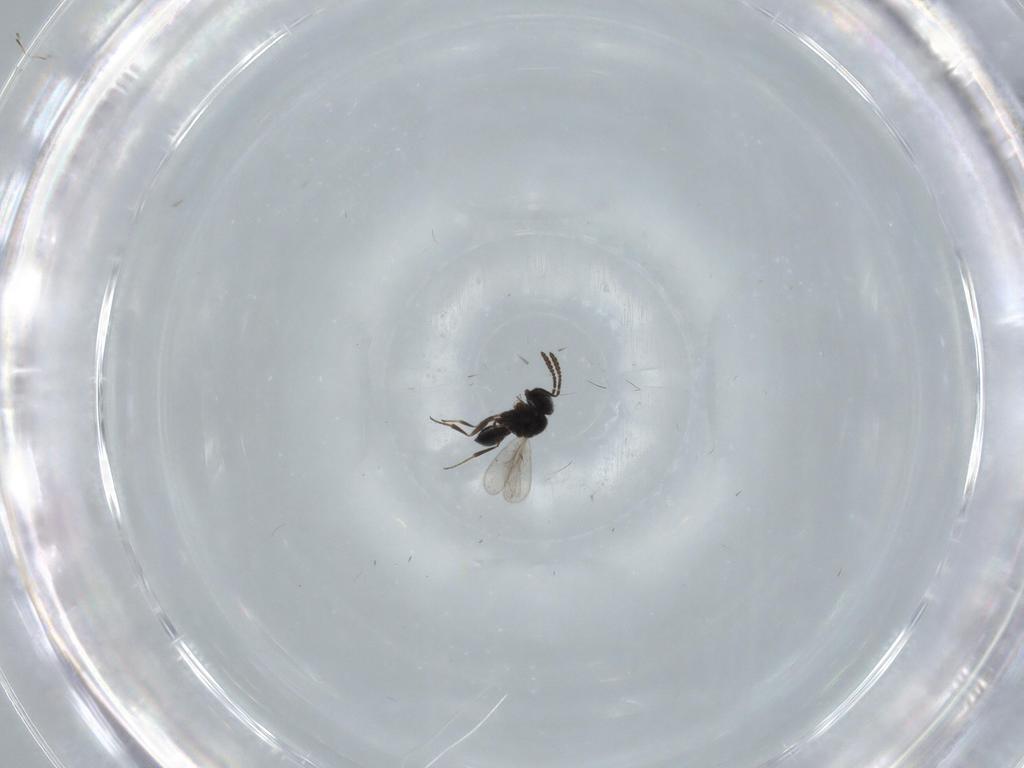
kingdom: Animalia
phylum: Arthropoda
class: Insecta
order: Hymenoptera
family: Scelionidae
